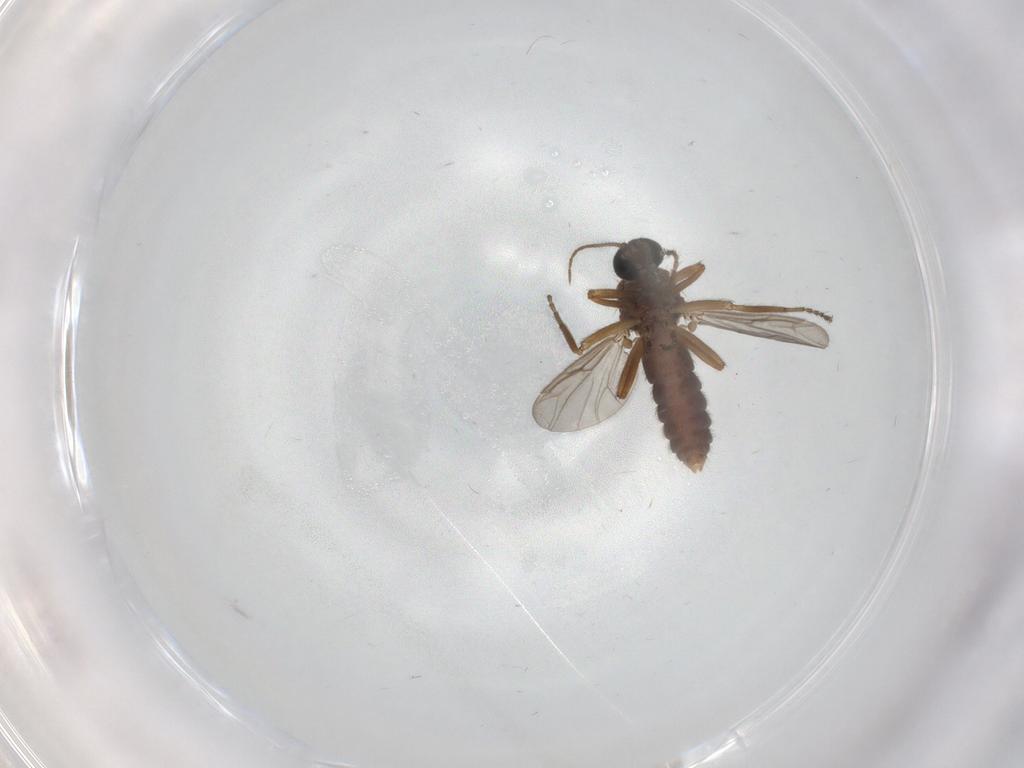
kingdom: Animalia
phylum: Arthropoda
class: Insecta
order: Diptera
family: Ceratopogonidae
